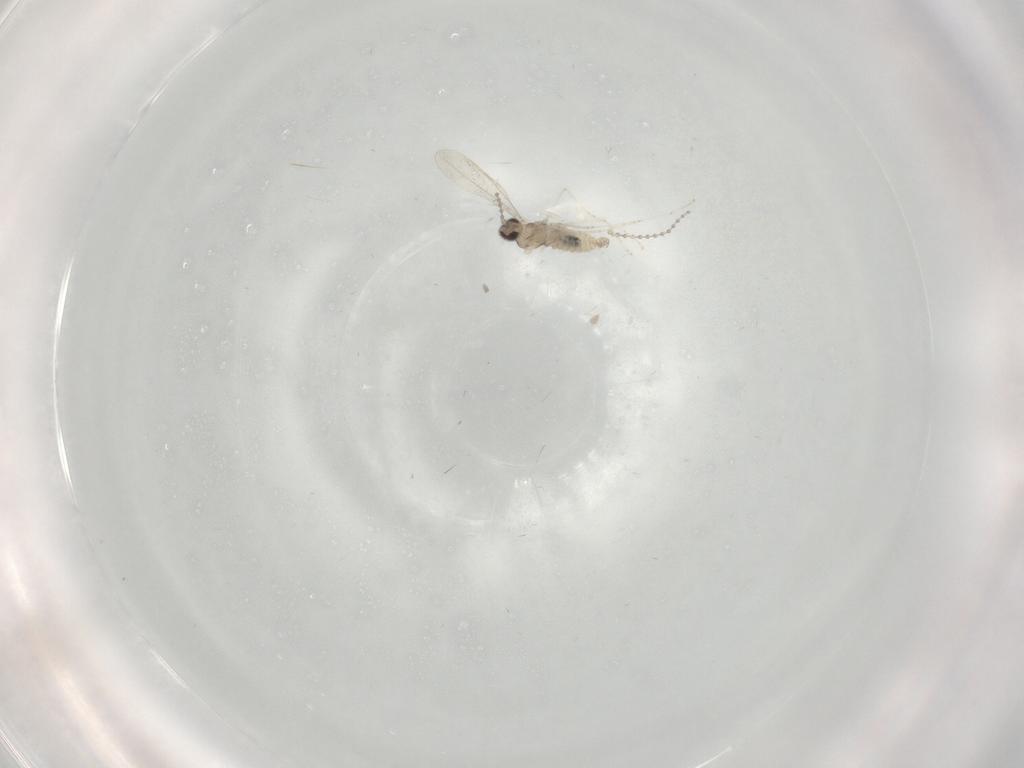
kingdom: Animalia
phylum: Arthropoda
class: Insecta
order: Diptera
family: Cecidomyiidae
